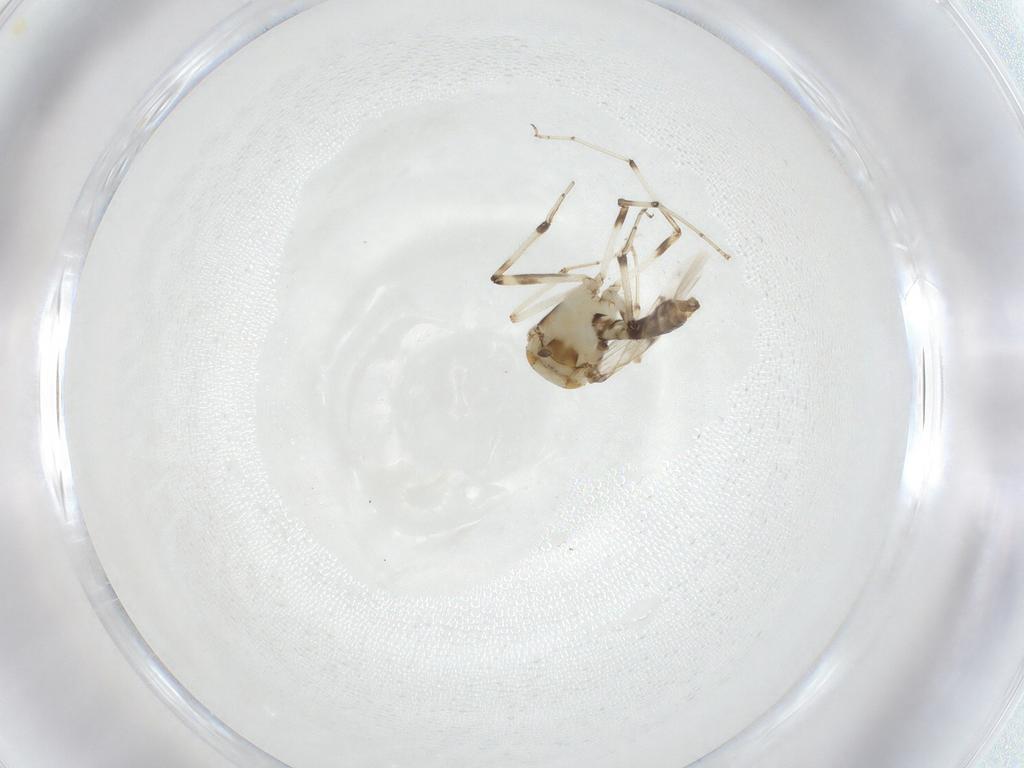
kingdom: Animalia
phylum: Arthropoda
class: Insecta
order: Diptera
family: Ceratopogonidae
